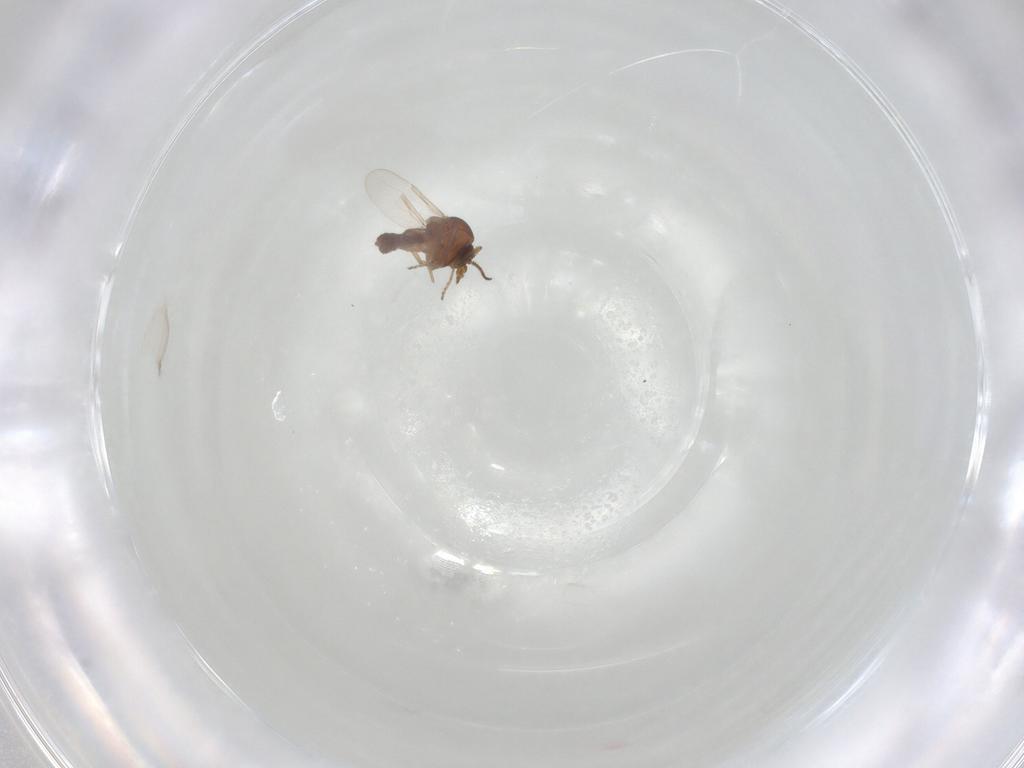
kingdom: Animalia
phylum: Arthropoda
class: Insecta
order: Diptera
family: Ceratopogonidae
